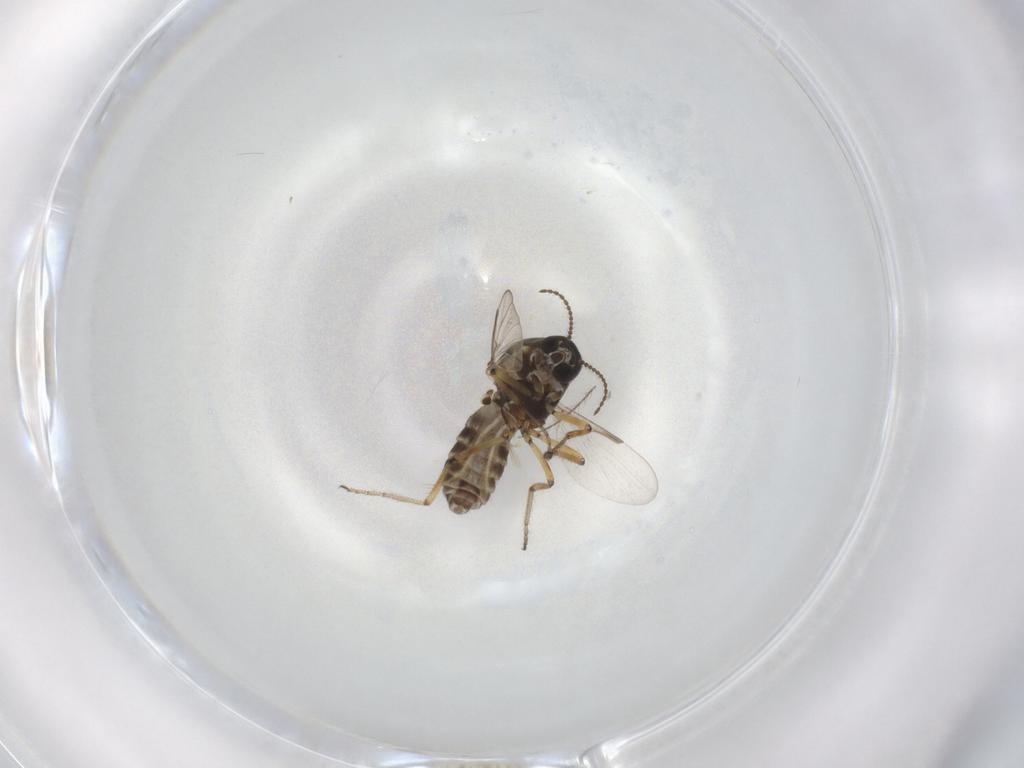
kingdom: Animalia
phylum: Arthropoda
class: Insecta
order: Diptera
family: Ceratopogonidae
